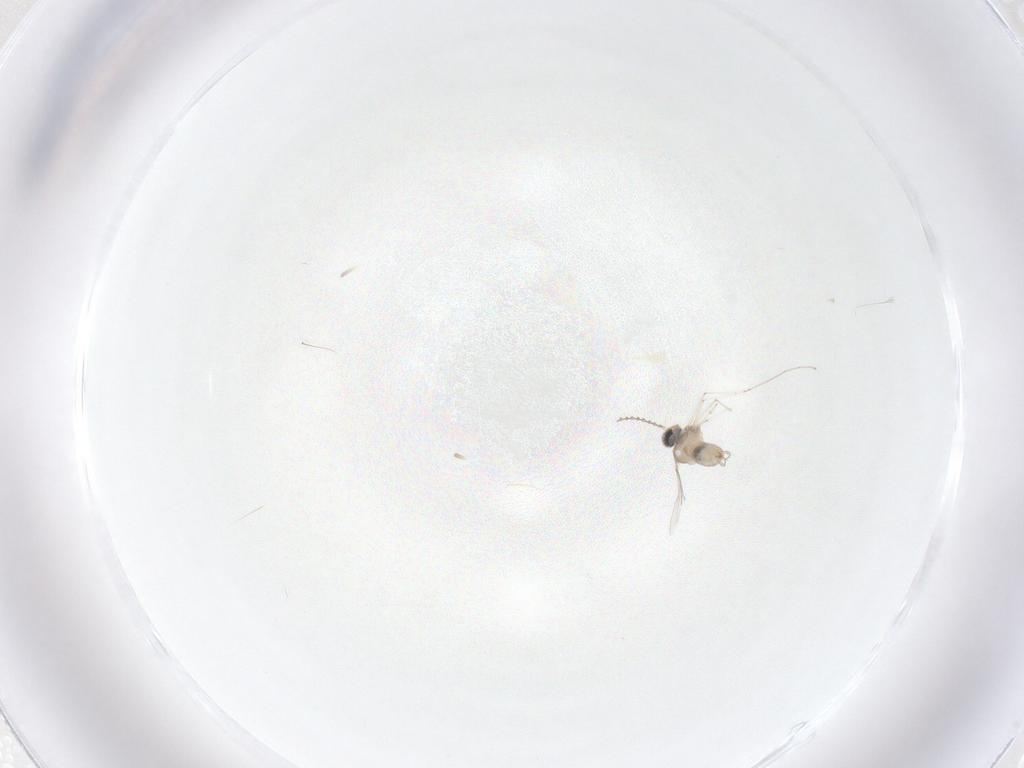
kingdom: Animalia
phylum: Arthropoda
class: Insecta
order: Diptera
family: Cecidomyiidae
